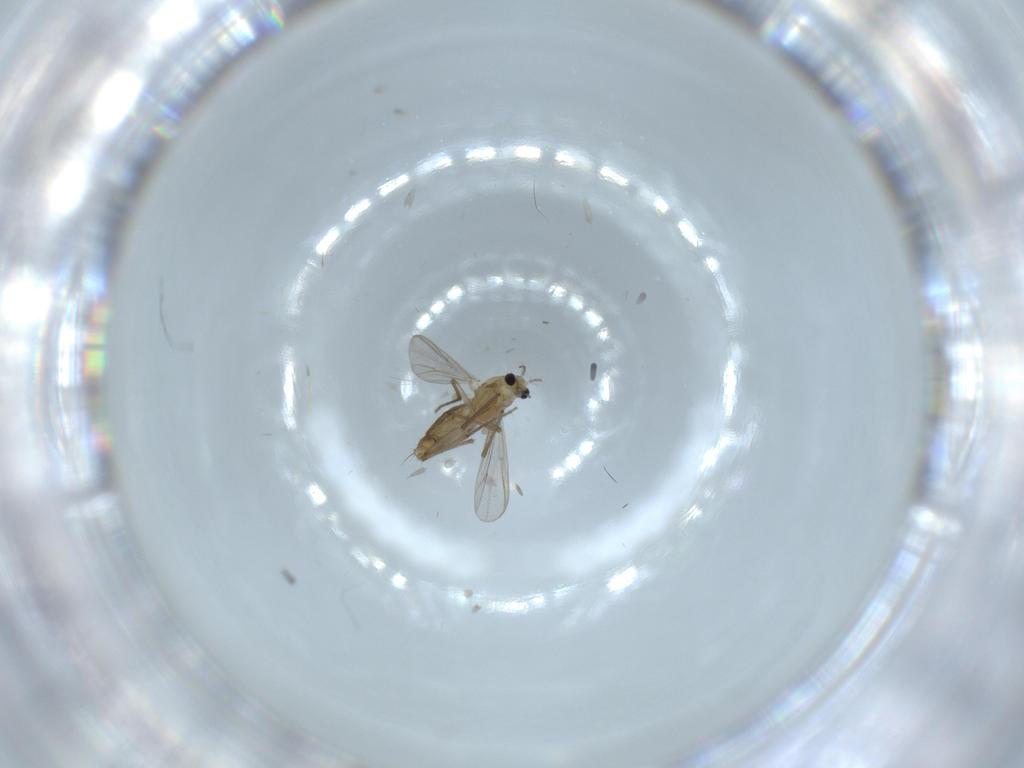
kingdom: Animalia
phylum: Arthropoda
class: Insecta
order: Diptera
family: Chironomidae
